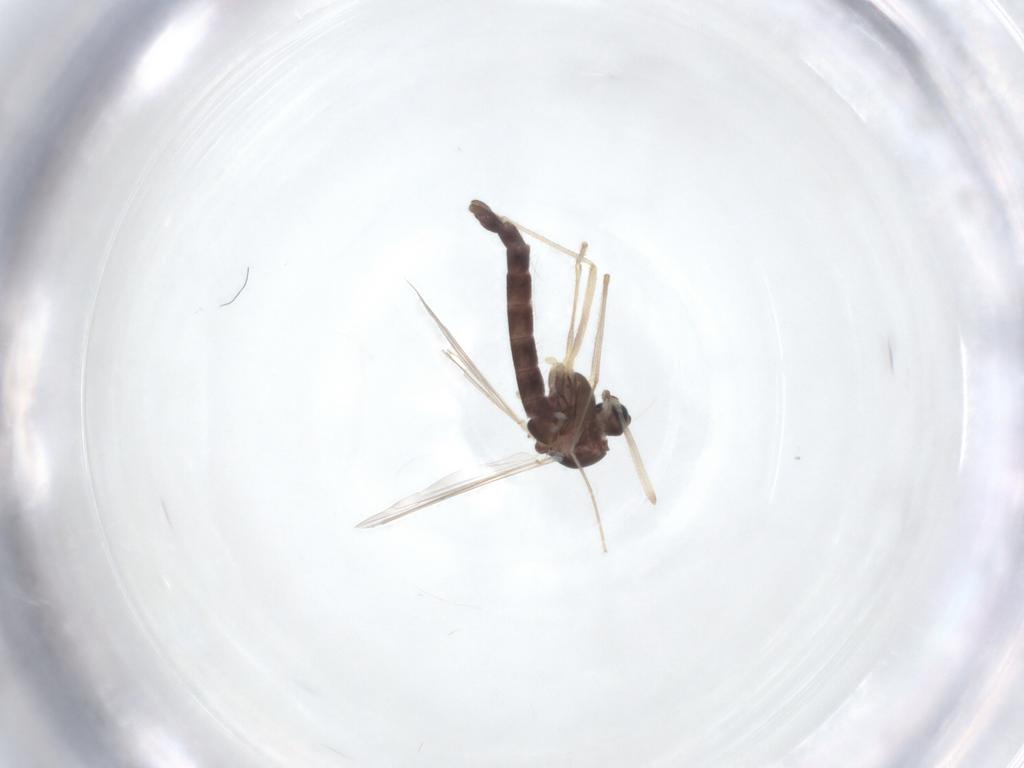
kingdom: Animalia
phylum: Arthropoda
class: Insecta
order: Diptera
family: Chironomidae
